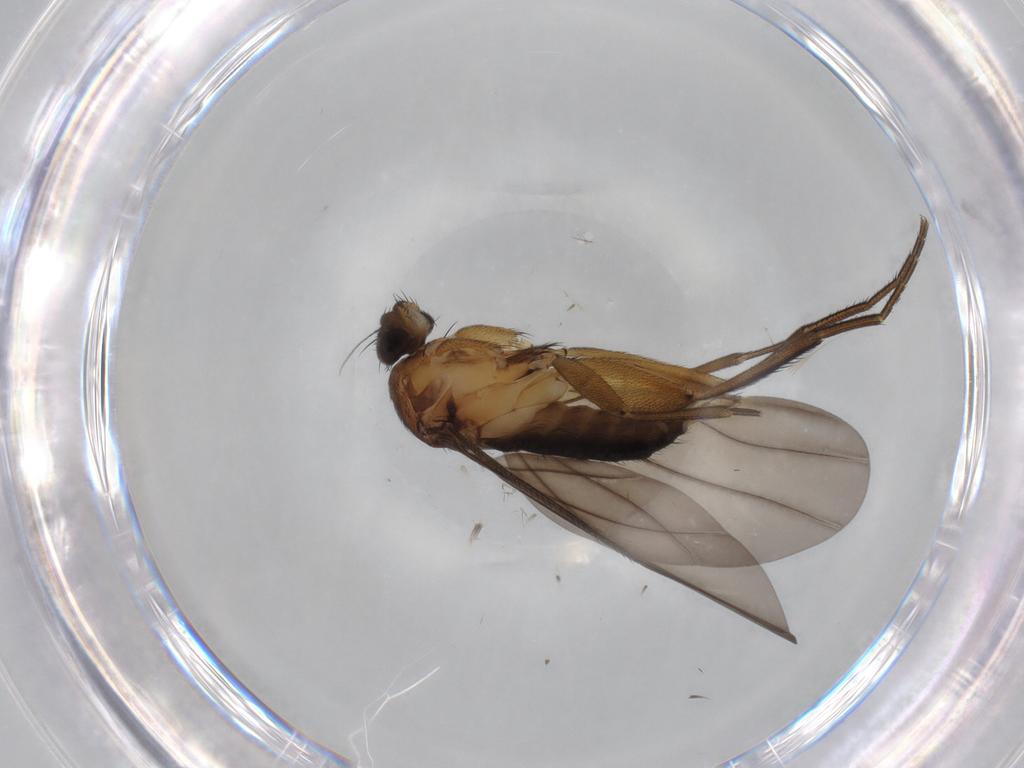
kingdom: Animalia
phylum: Arthropoda
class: Insecta
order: Diptera
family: Phoridae
